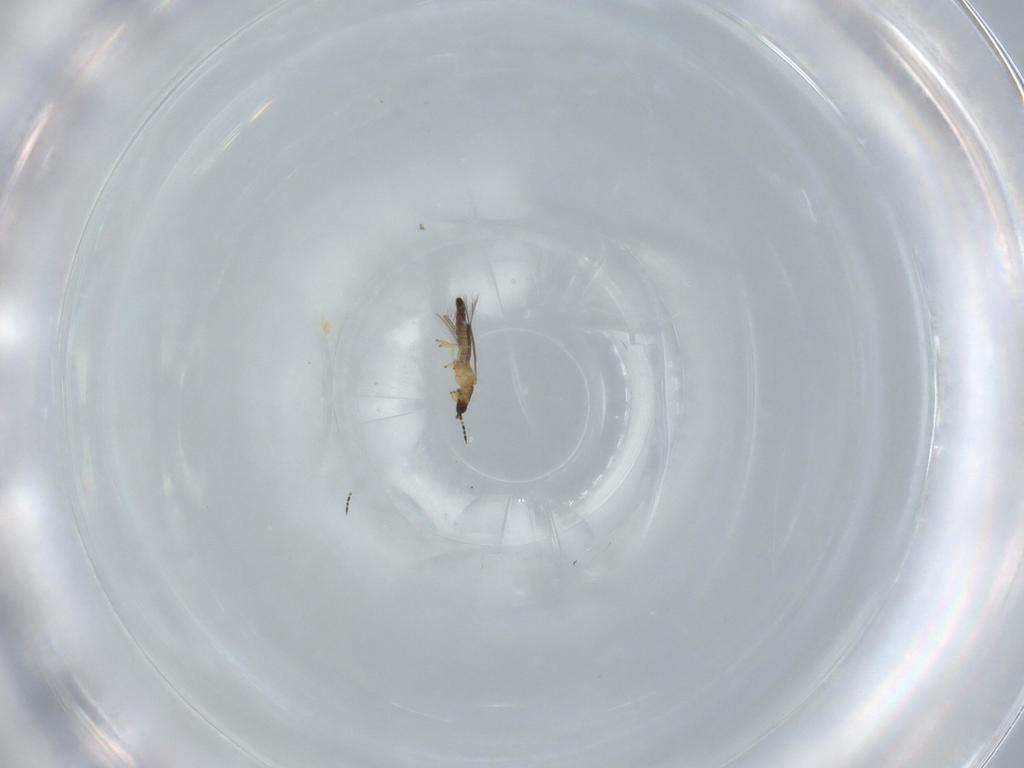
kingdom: Animalia
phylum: Arthropoda
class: Insecta
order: Thysanoptera
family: Thripidae
